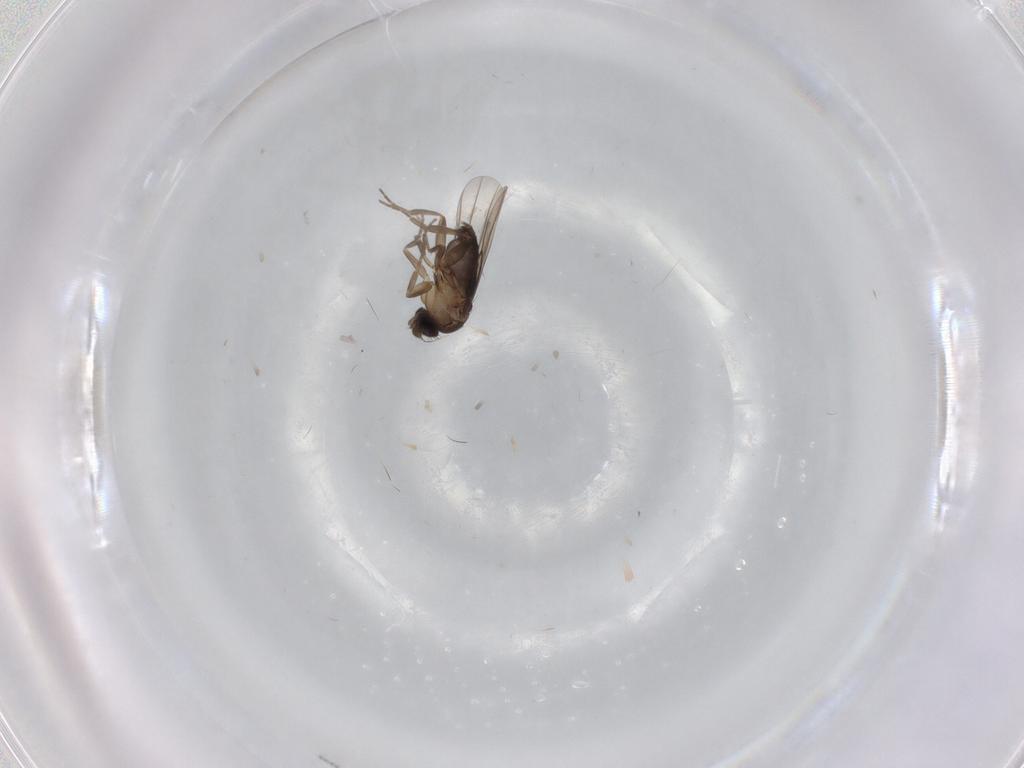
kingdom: Animalia
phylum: Arthropoda
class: Insecta
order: Diptera
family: Phoridae
